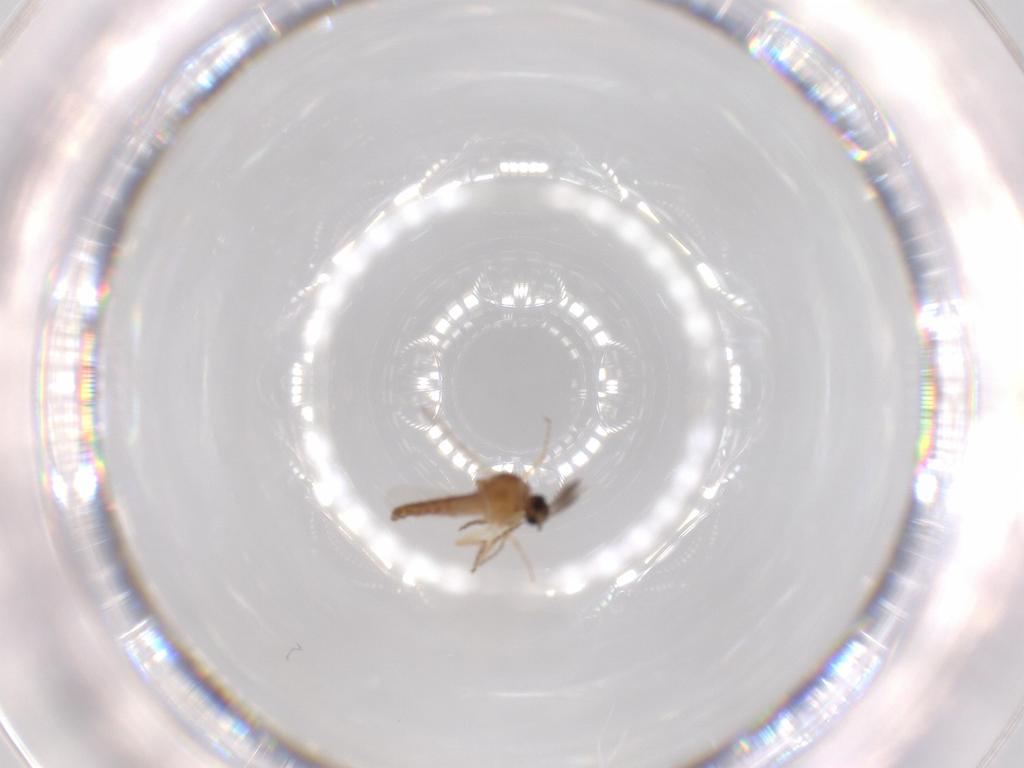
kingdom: Animalia
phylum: Arthropoda
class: Insecta
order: Diptera
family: Ceratopogonidae
